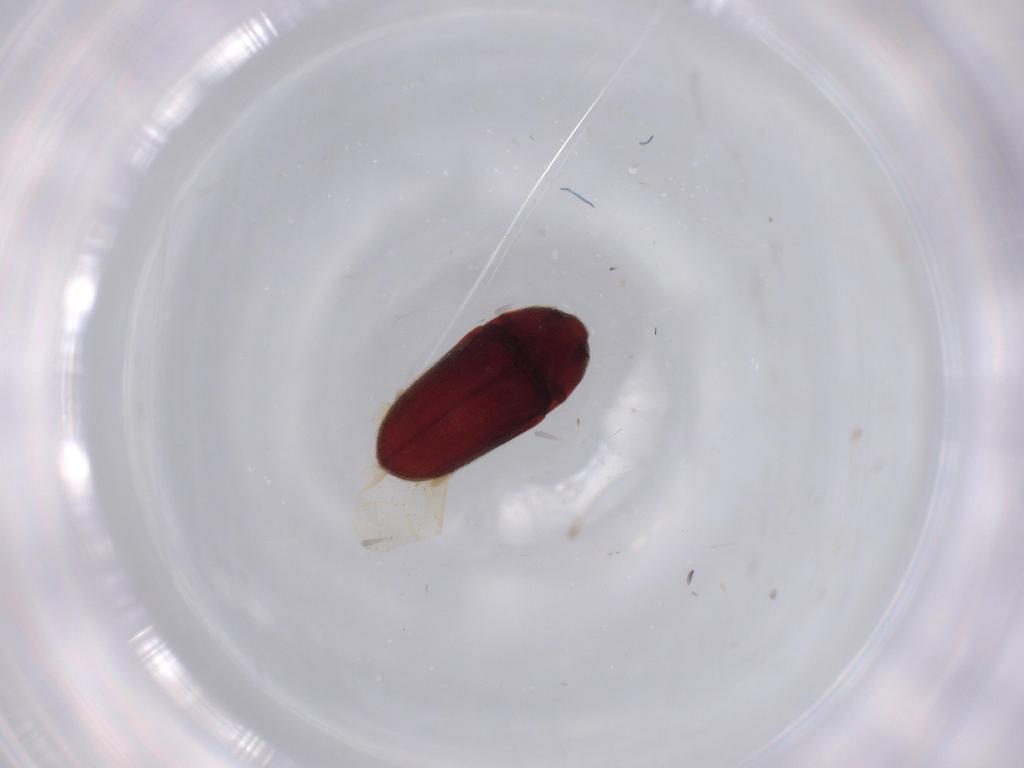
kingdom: Animalia
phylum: Arthropoda
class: Insecta
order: Coleoptera
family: Throscidae
